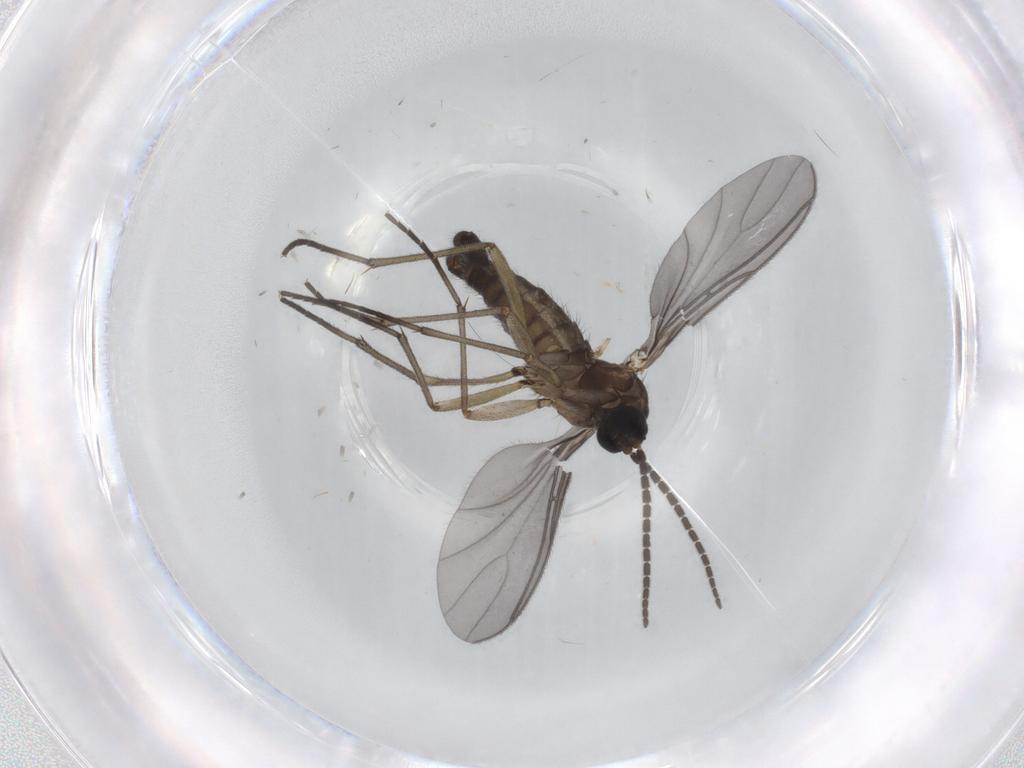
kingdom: Animalia
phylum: Arthropoda
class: Insecta
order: Diptera
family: Sciaridae
